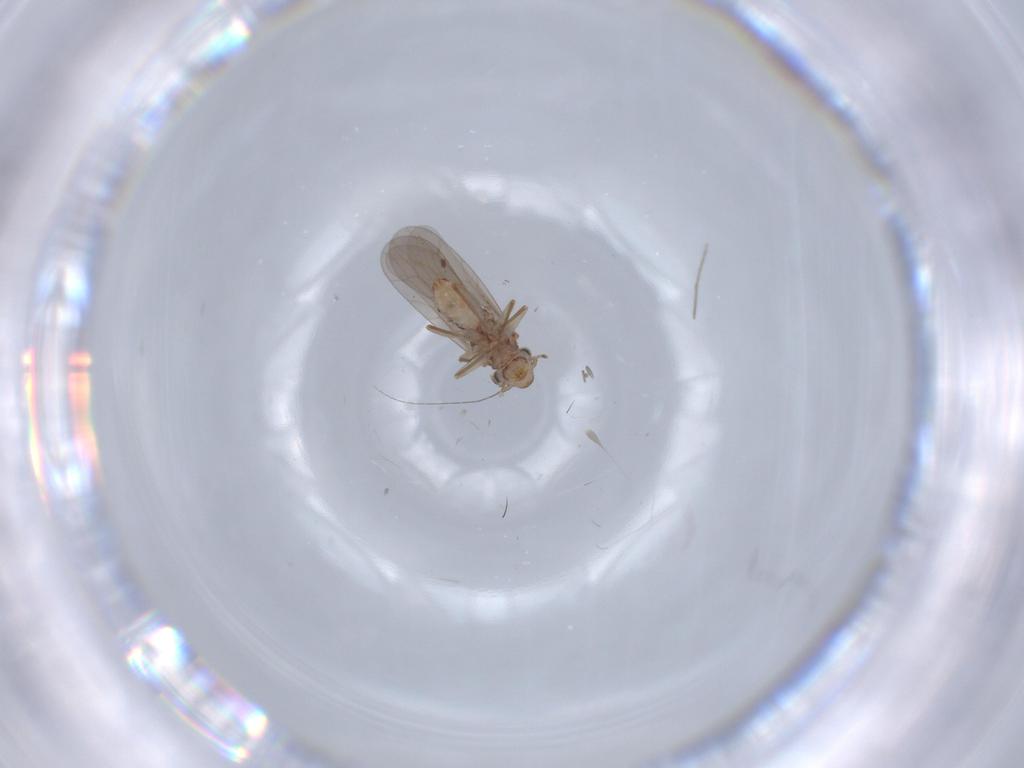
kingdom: Animalia
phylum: Arthropoda
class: Insecta
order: Psocodea
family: Lepidopsocidae
